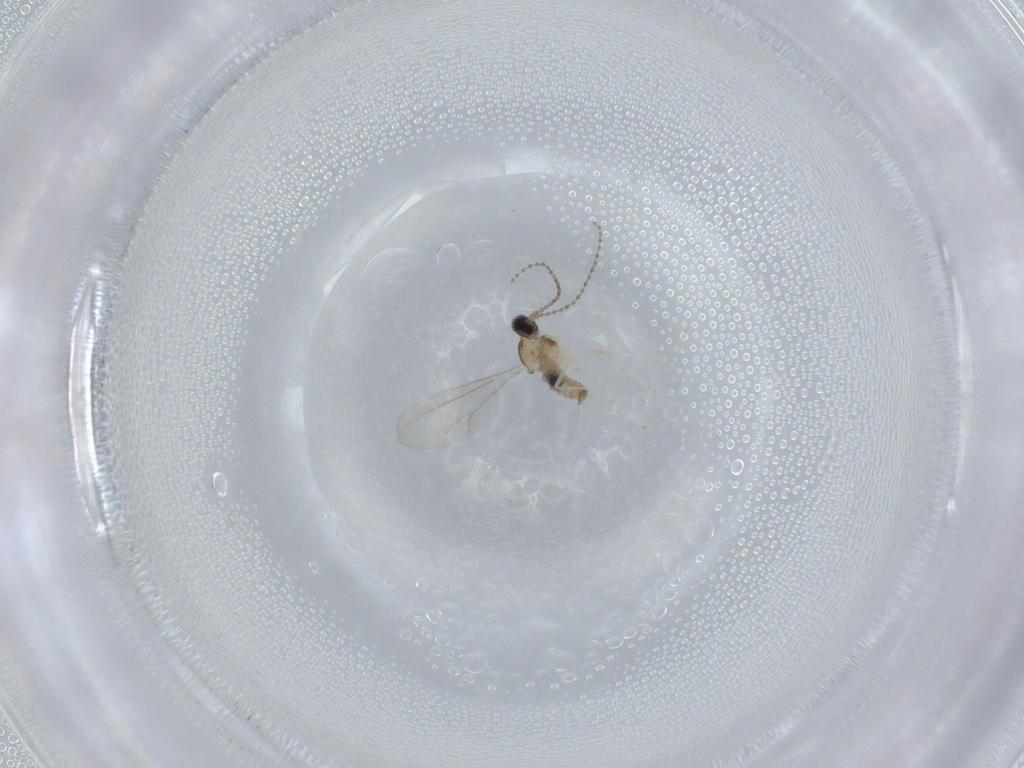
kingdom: Animalia
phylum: Arthropoda
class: Insecta
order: Diptera
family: Cecidomyiidae
